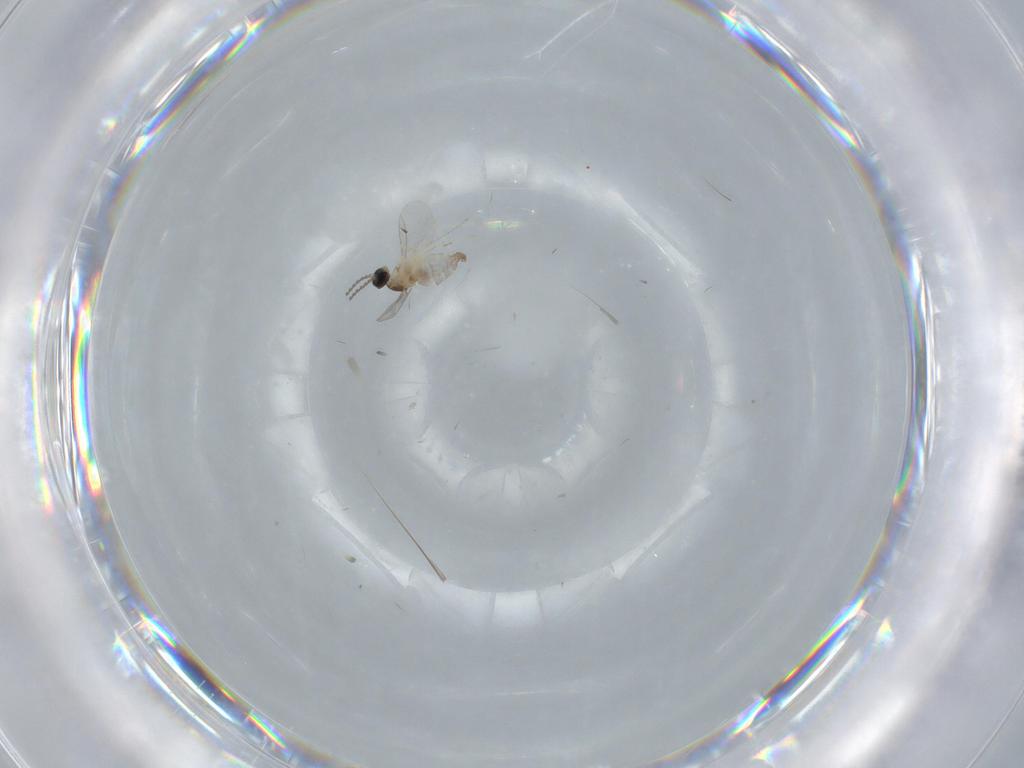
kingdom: Animalia
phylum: Arthropoda
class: Insecta
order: Diptera
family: Cecidomyiidae
